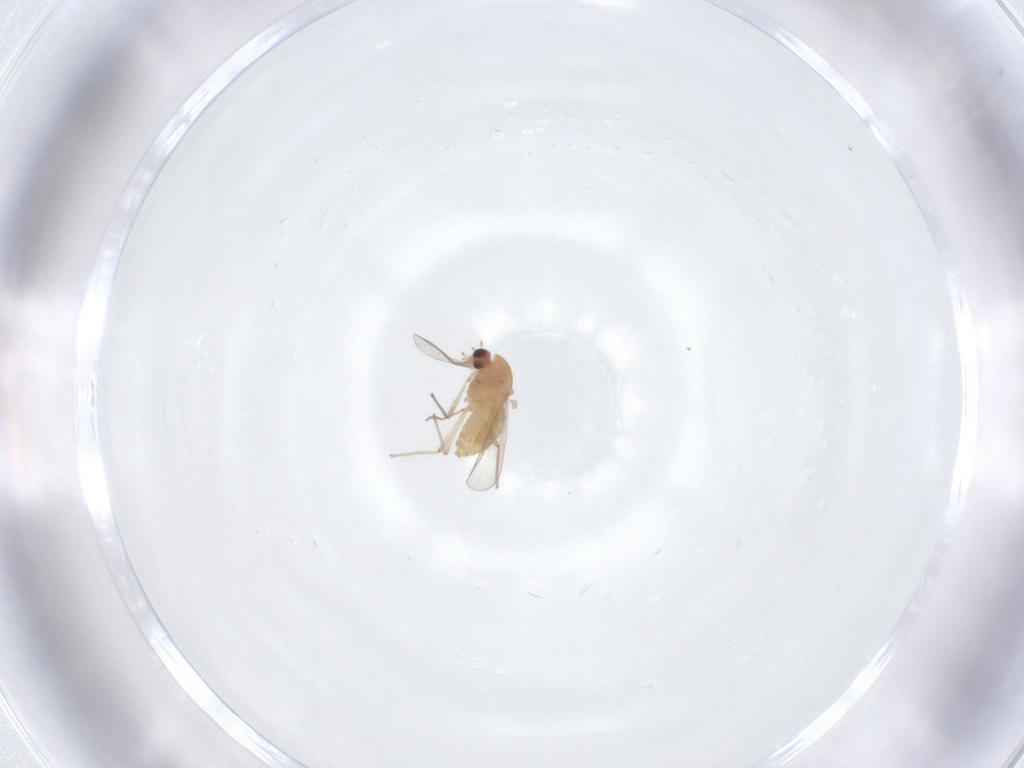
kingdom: Animalia
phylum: Arthropoda
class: Insecta
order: Diptera
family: Chironomidae
